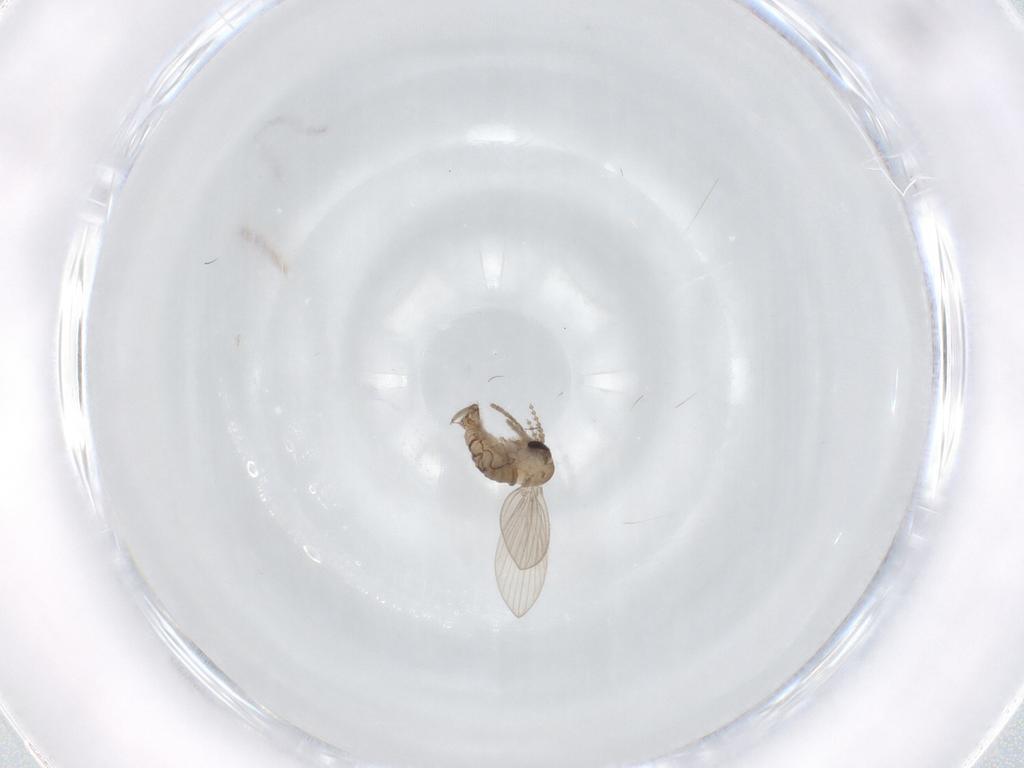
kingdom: Animalia
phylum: Arthropoda
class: Insecta
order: Diptera
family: Psychodidae
